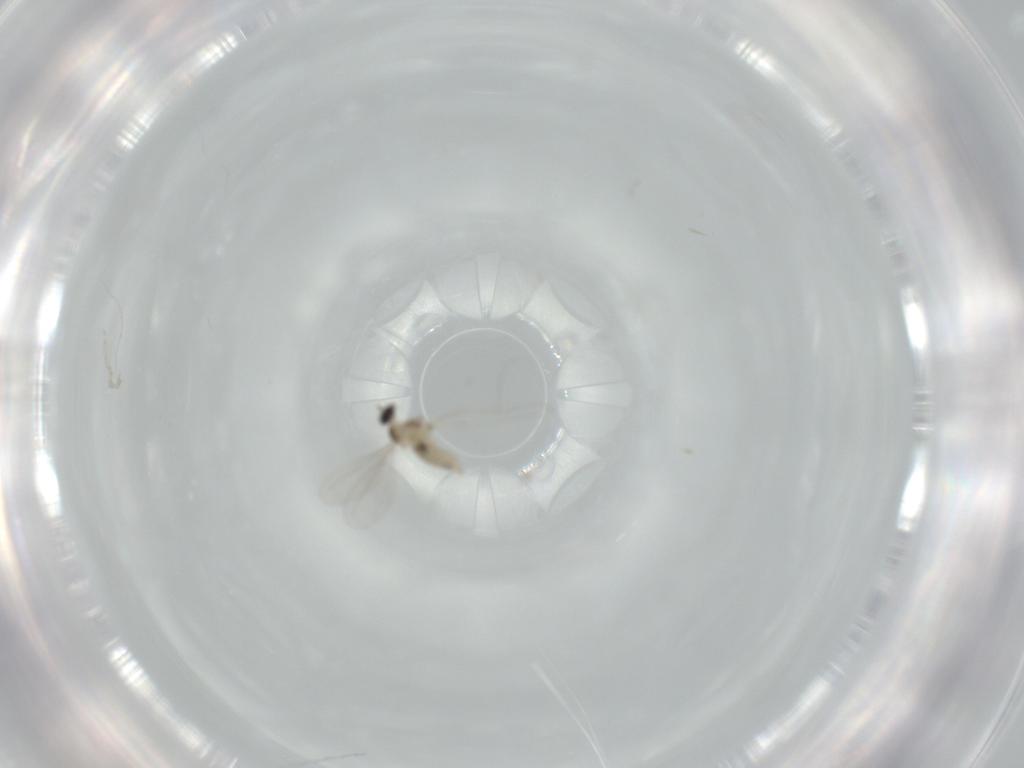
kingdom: Animalia
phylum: Arthropoda
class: Insecta
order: Diptera
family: Cecidomyiidae
